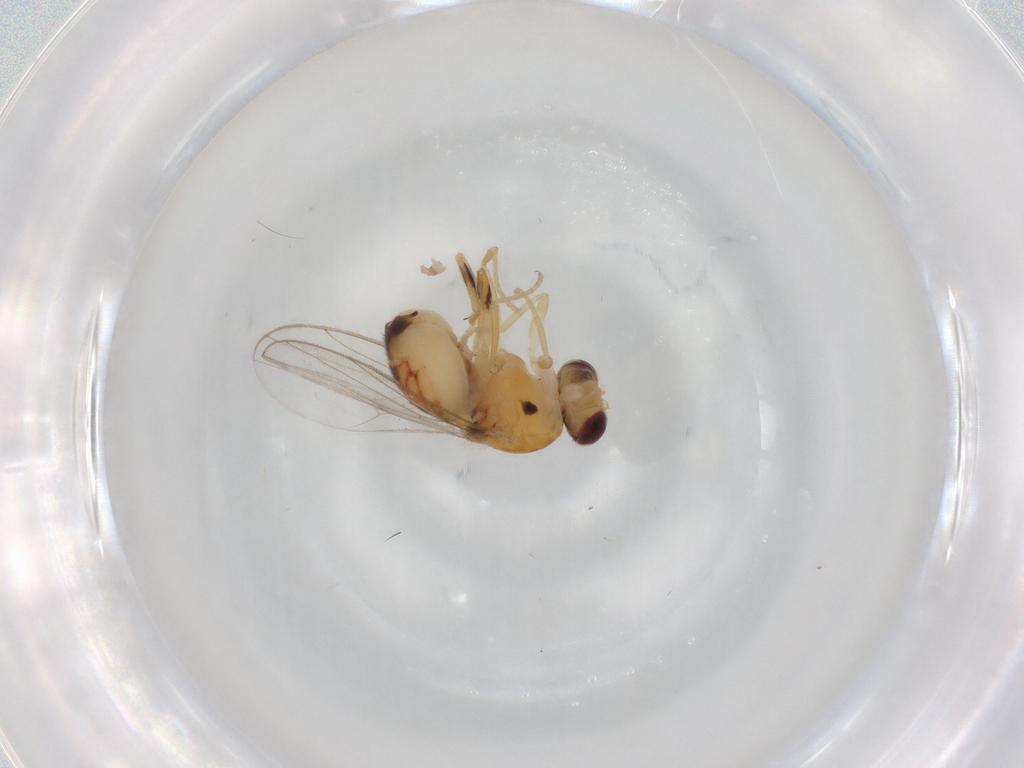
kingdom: Animalia
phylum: Arthropoda
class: Insecta
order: Diptera
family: Chloropidae
